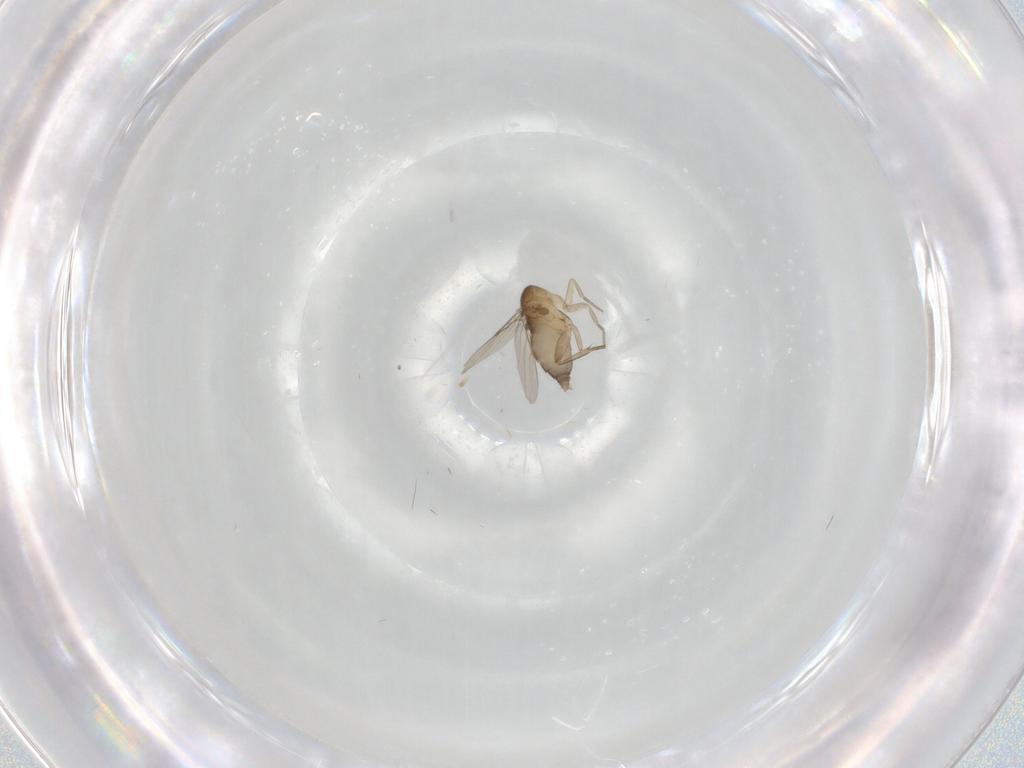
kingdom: Animalia
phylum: Arthropoda
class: Insecta
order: Diptera
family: Phoridae
